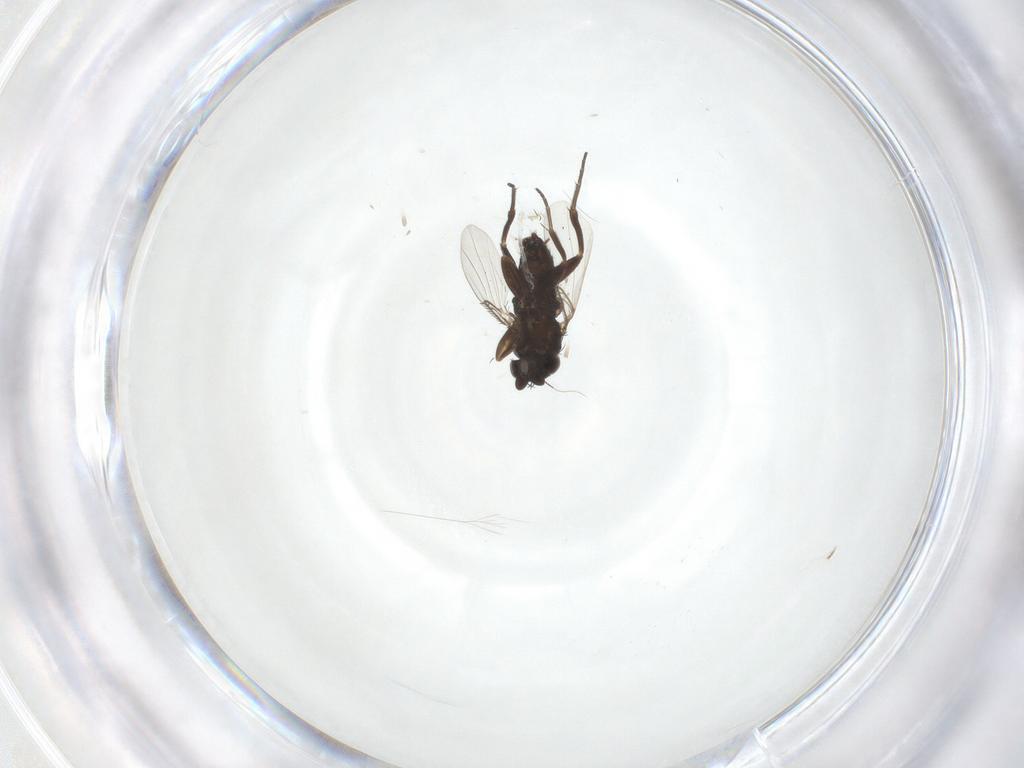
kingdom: Animalia
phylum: Arthropoda
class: Insecta
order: Diptera
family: Phoridae
